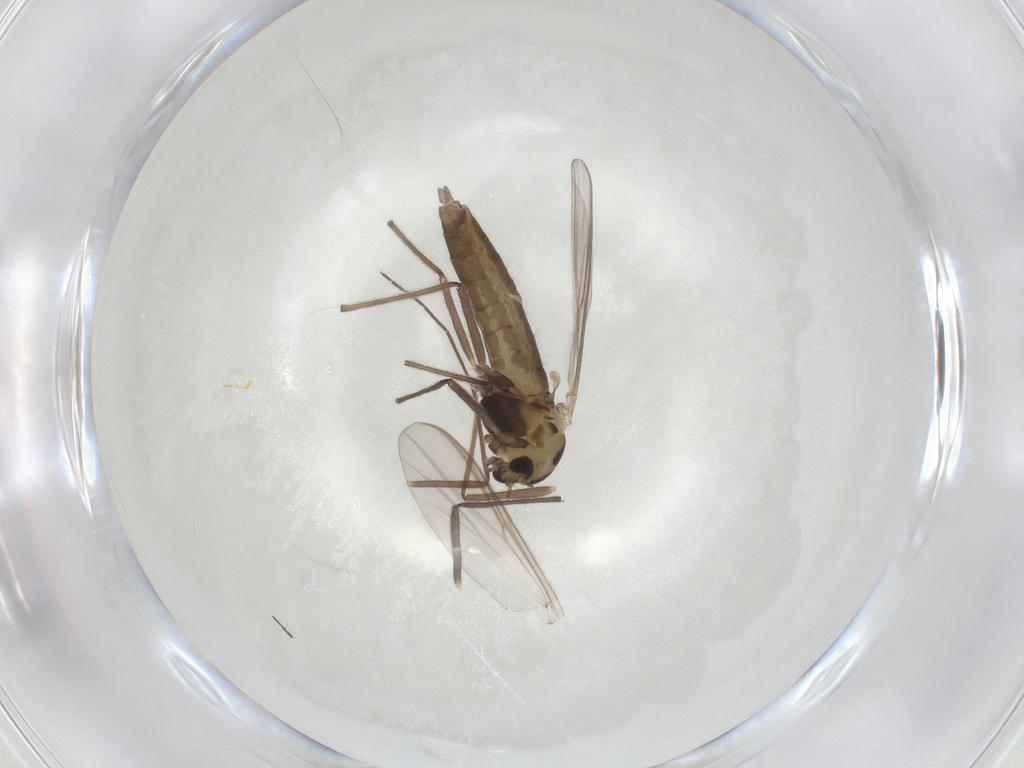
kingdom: Animalia
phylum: Arthropoda
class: Insecta
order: Diptera
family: Chironomidae
